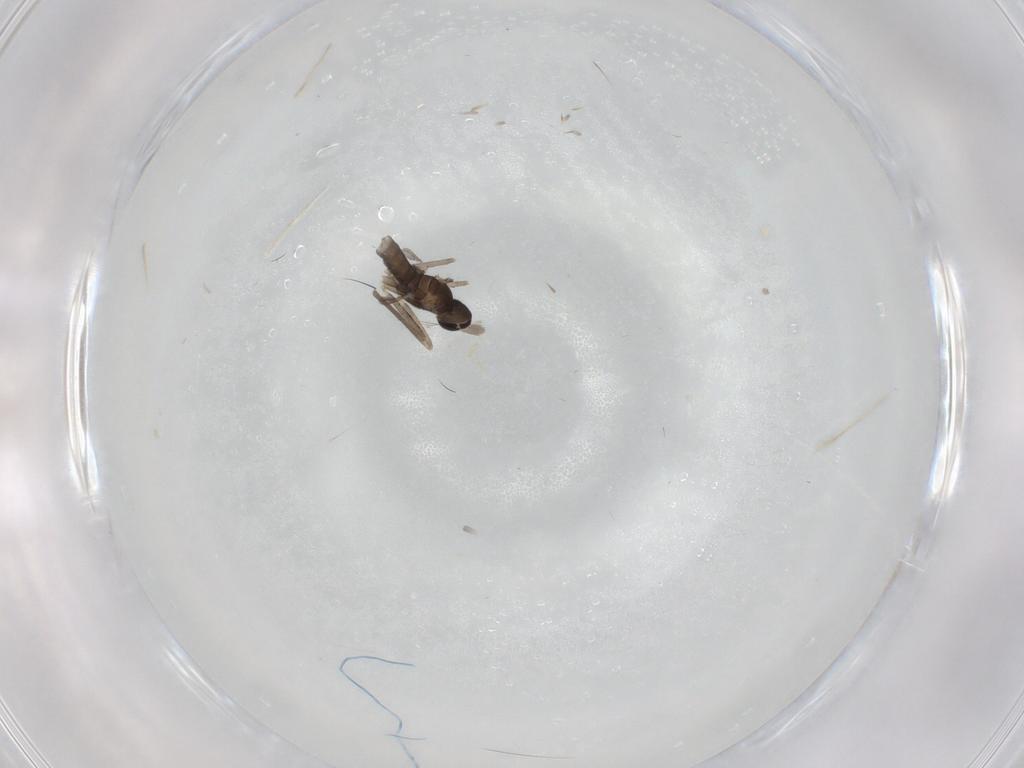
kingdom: Animalia
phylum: Arthropoda
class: Insecta
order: Diptera
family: Cecidomyiidae
